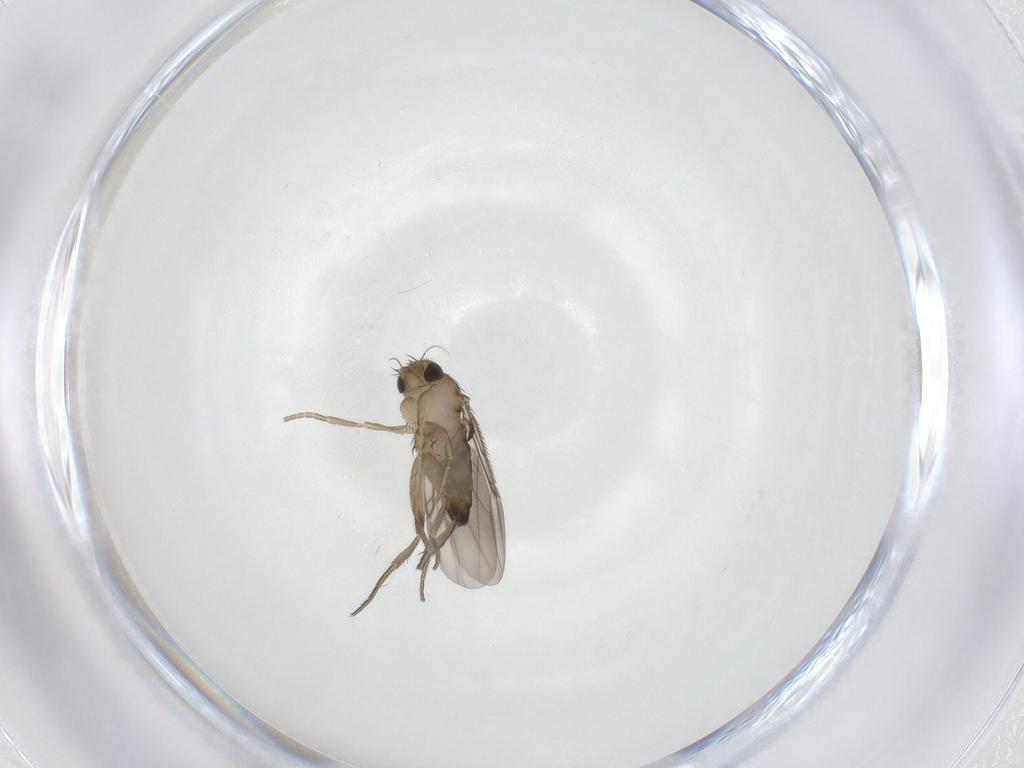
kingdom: Animalia
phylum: Arthropoda
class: Insecta
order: Diptera
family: Phoridae
